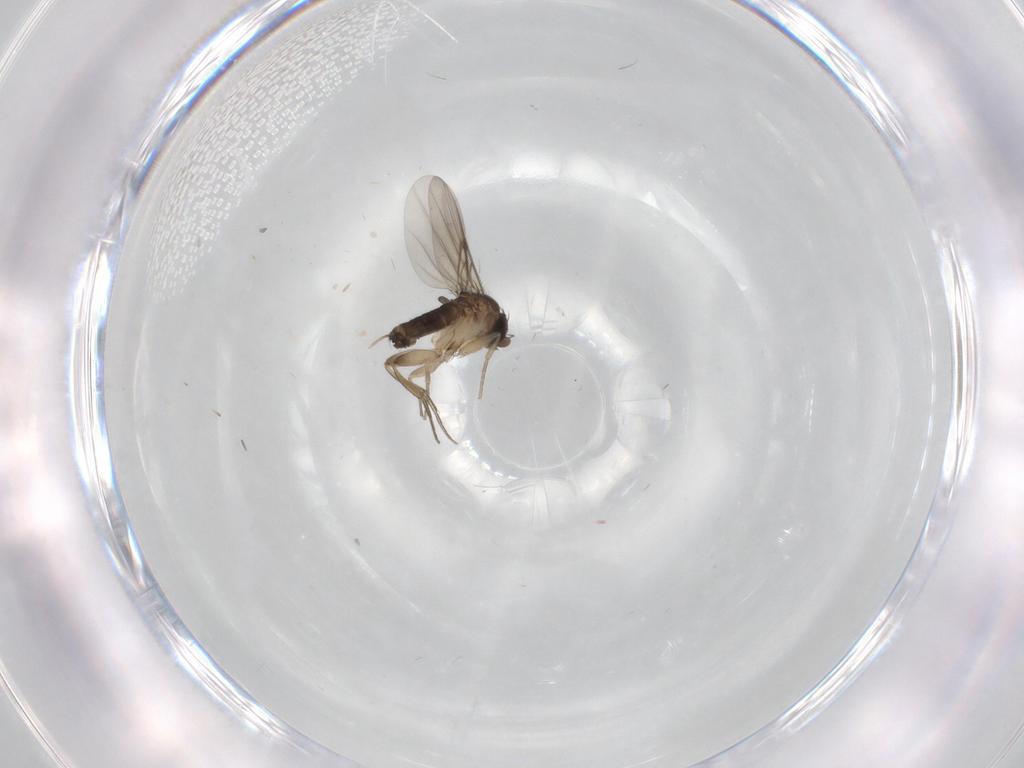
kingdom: Animalia
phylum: Arthropoda
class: Insecta
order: Diptera
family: Phoridae
